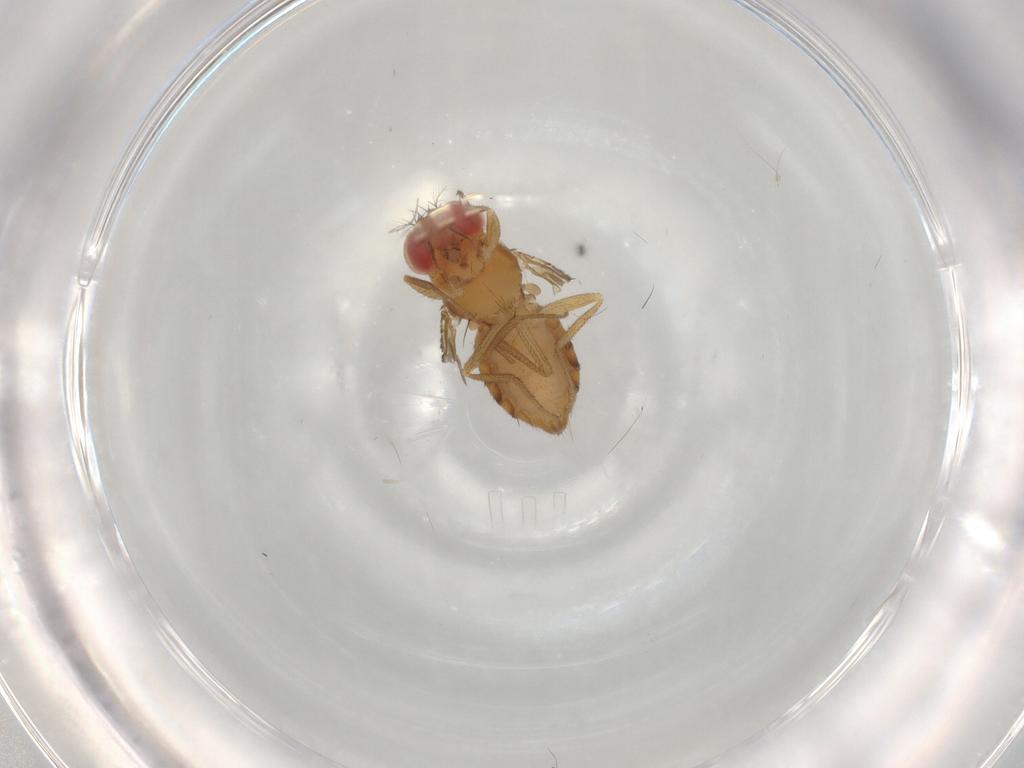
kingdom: Animalia
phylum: Arthropoda
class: Insecta
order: Diptera
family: Drosophilidae
